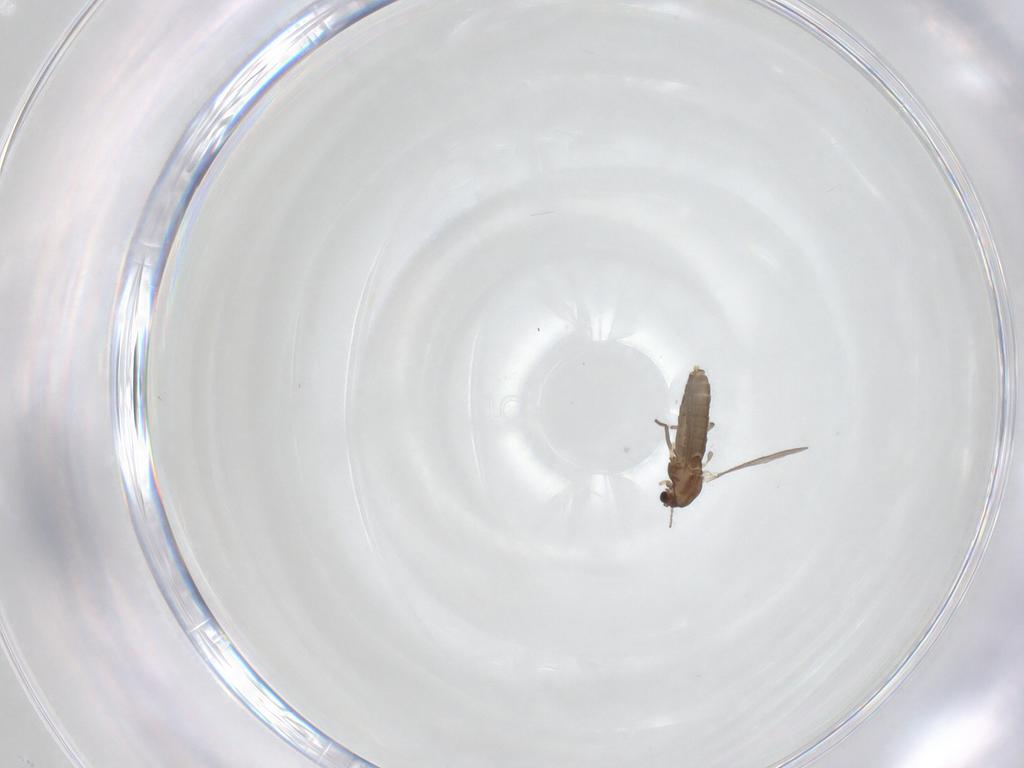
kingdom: Animalia
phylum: Arthropoda
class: Insecta
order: Diptera
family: Chironomidae
